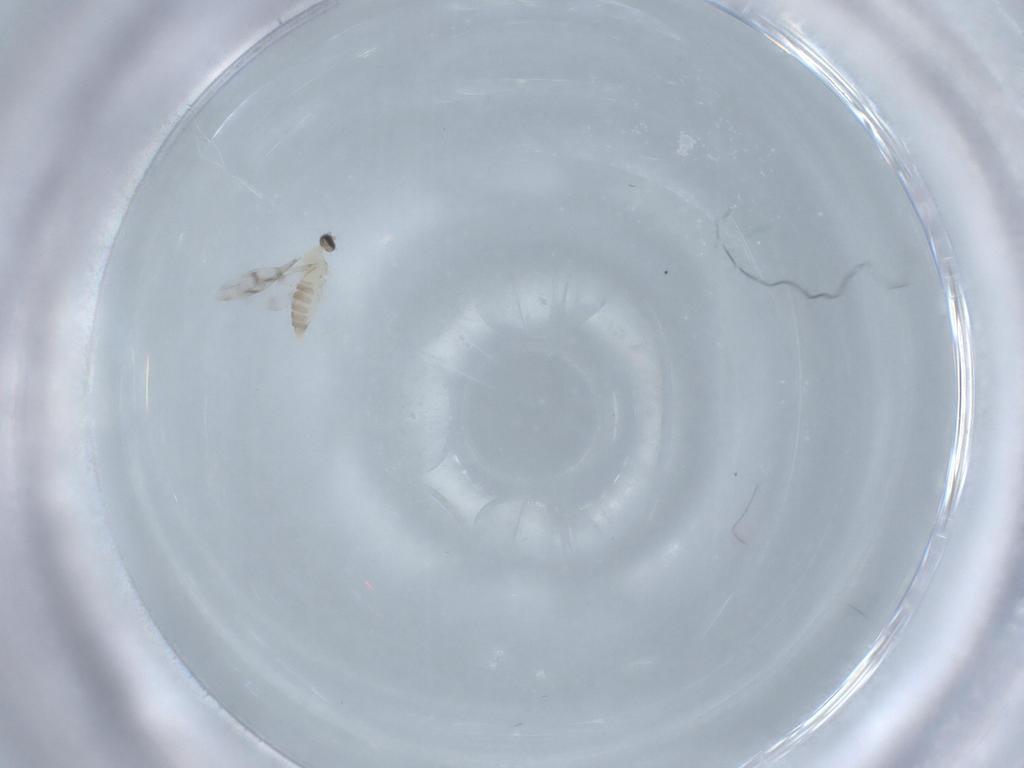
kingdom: Animalia
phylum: Arthropoda
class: Insecta
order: Diptera
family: Cecidomyiidae
